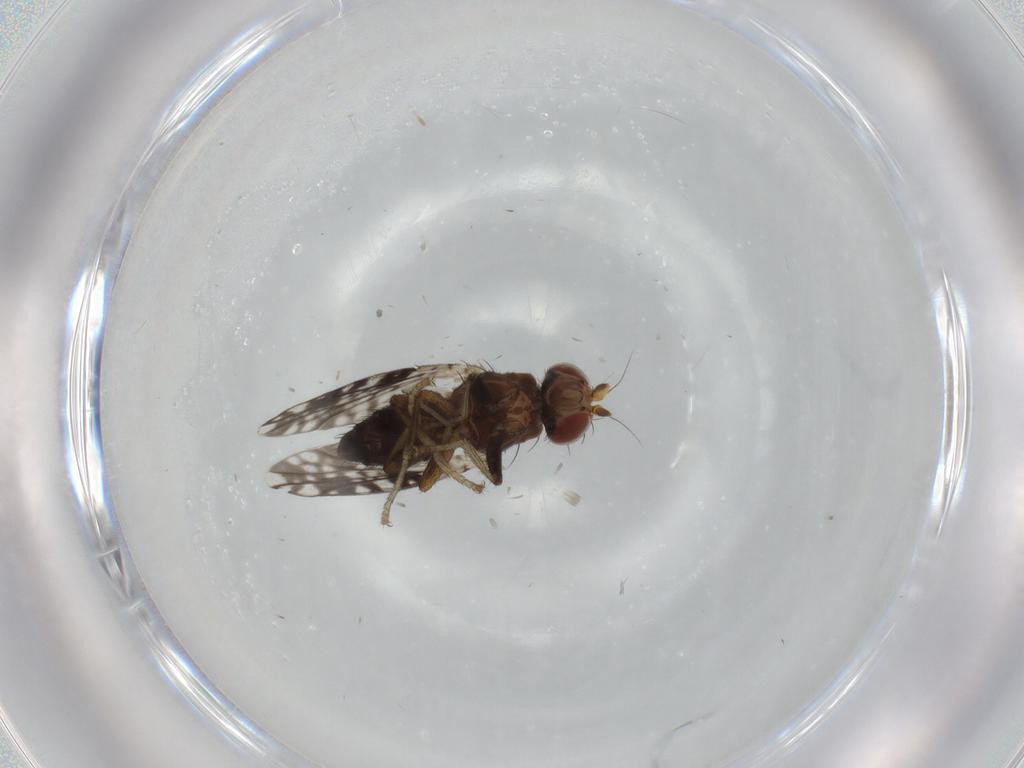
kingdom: Animalia
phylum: Arthropoda
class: Insecta
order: Diptera
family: Tephritidae
